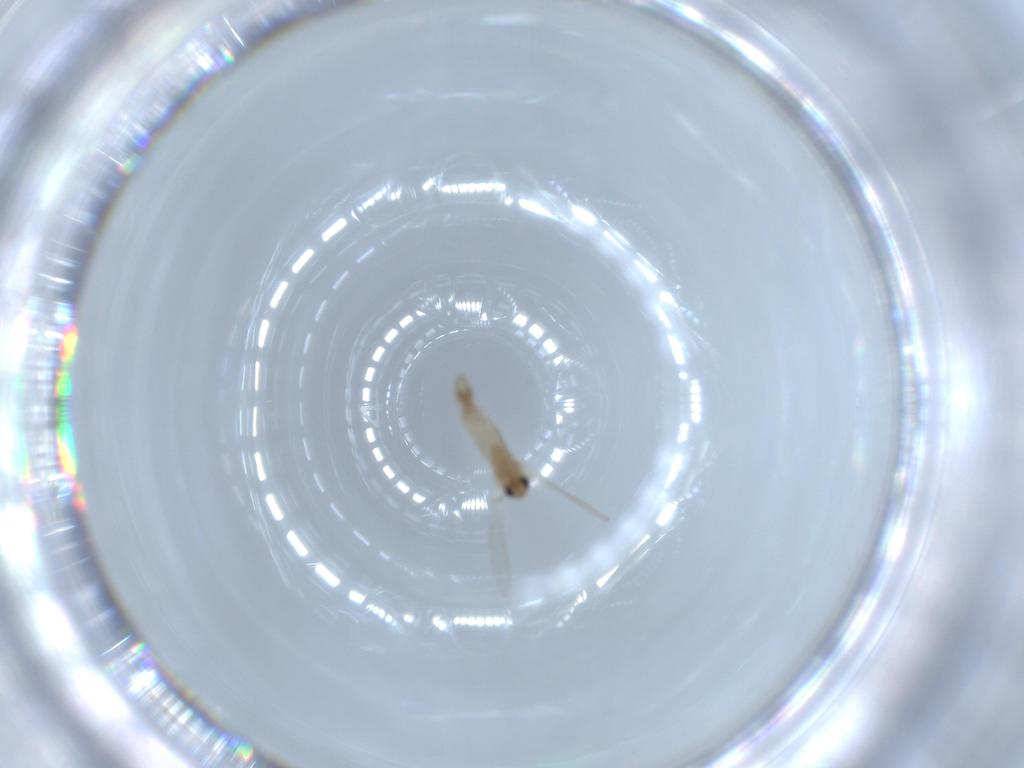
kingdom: Animalia
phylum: Arthropoda
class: Insecta
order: Diptera
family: Psychodidae
